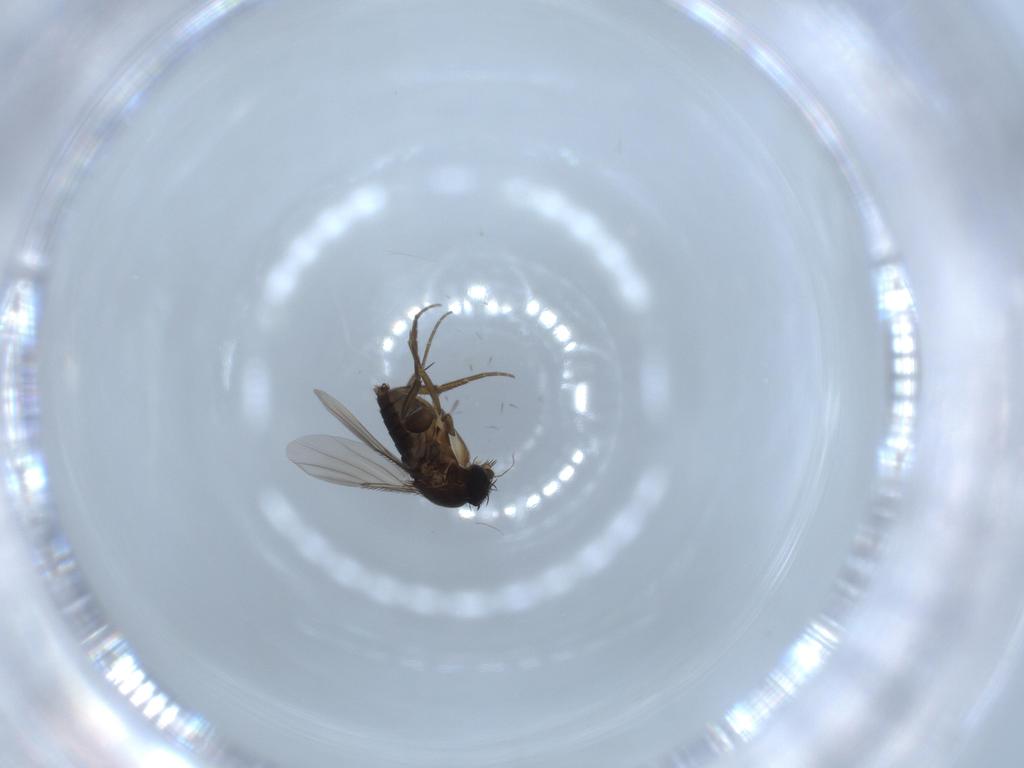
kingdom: Animalia
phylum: Arthropoda
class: Insecta
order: Diptera
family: Phoridae
